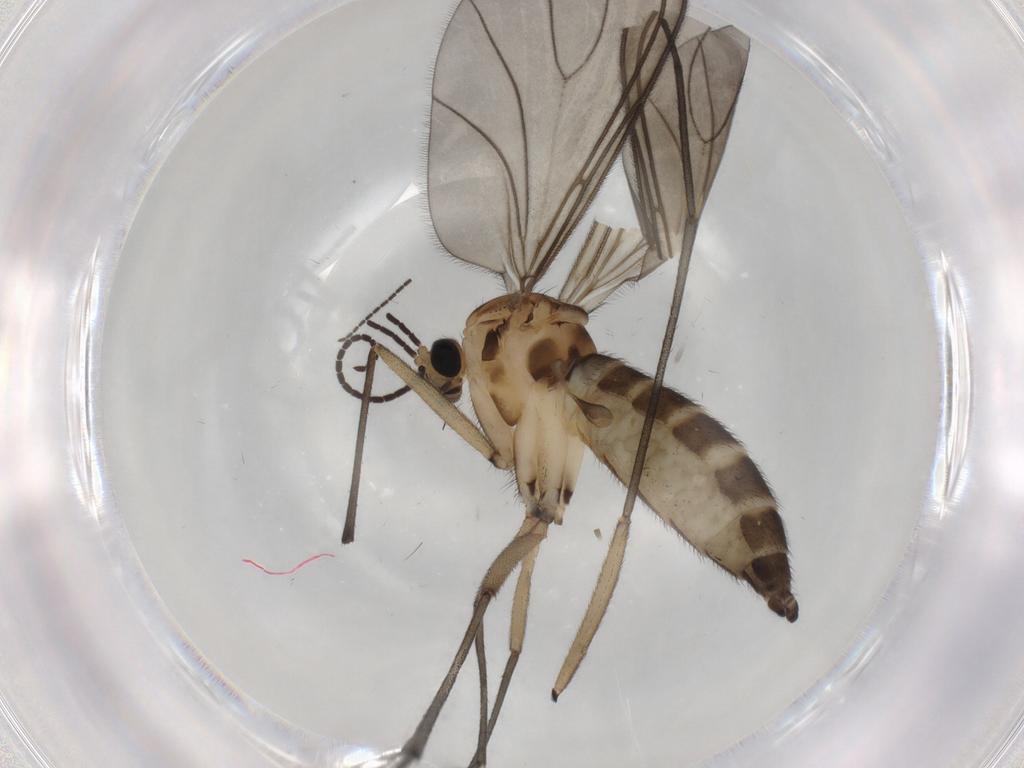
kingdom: Animalia
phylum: Arthropoda
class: Insecta
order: Diptera
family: Sciaridae
